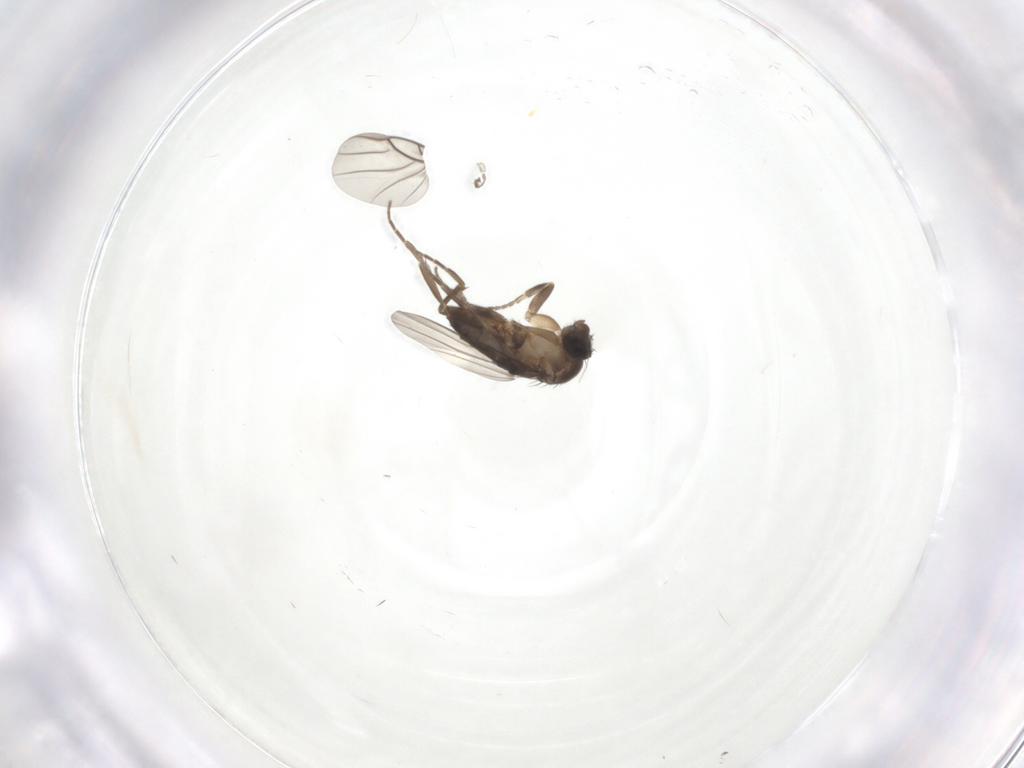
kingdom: Animalia
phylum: Arthropoda
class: Insecta
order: Diptera
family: Phoridae
